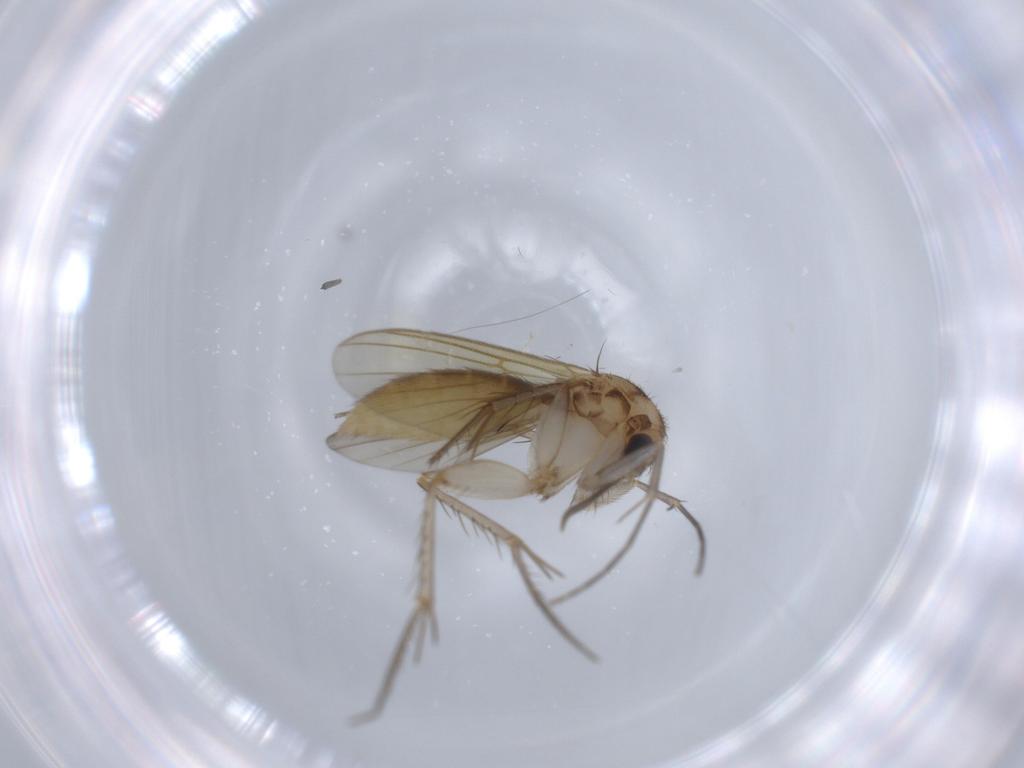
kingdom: Animalia
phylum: Arthropoda
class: Insecta
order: Diptera
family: Mycetophilidae
